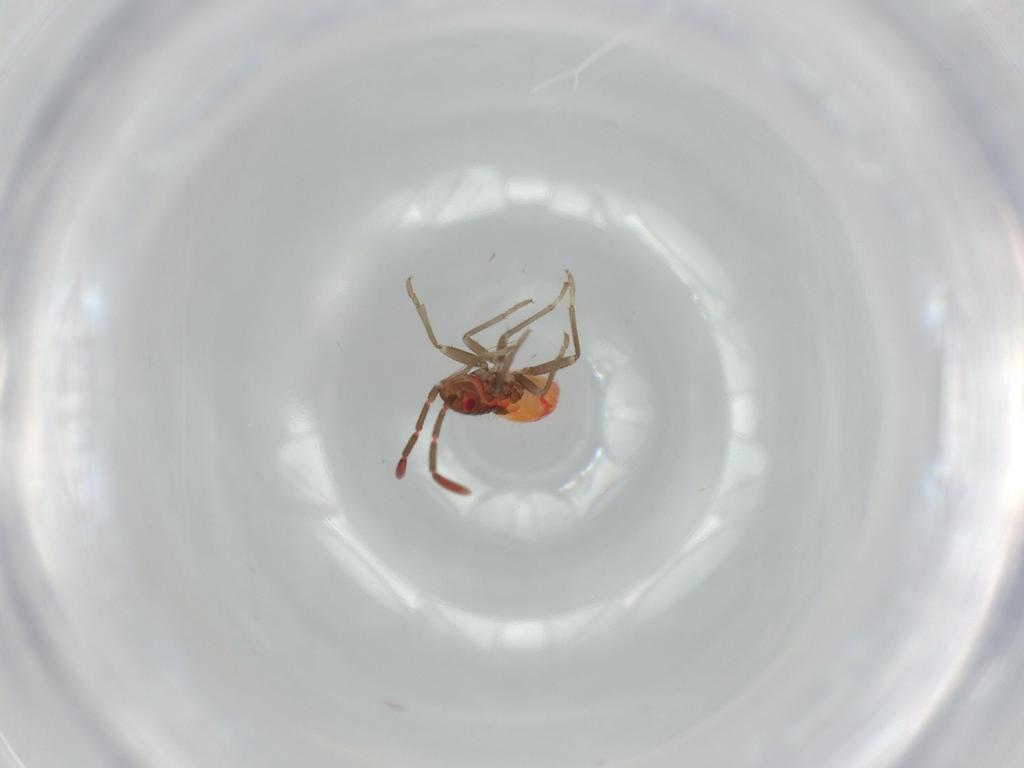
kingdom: Animalia
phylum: Arthropoda
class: Insecta
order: Hemiptera
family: Rhyparochromidae
